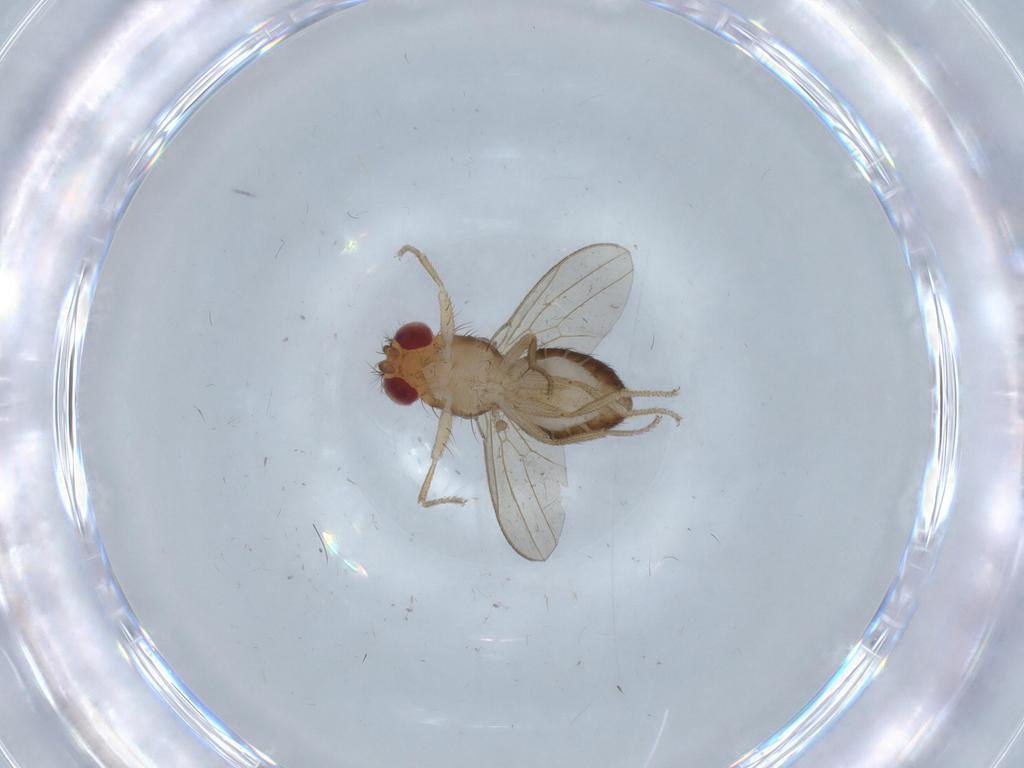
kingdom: Animalia
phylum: Arthropoda
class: Insecta
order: Diptera
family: Drosophilidae
